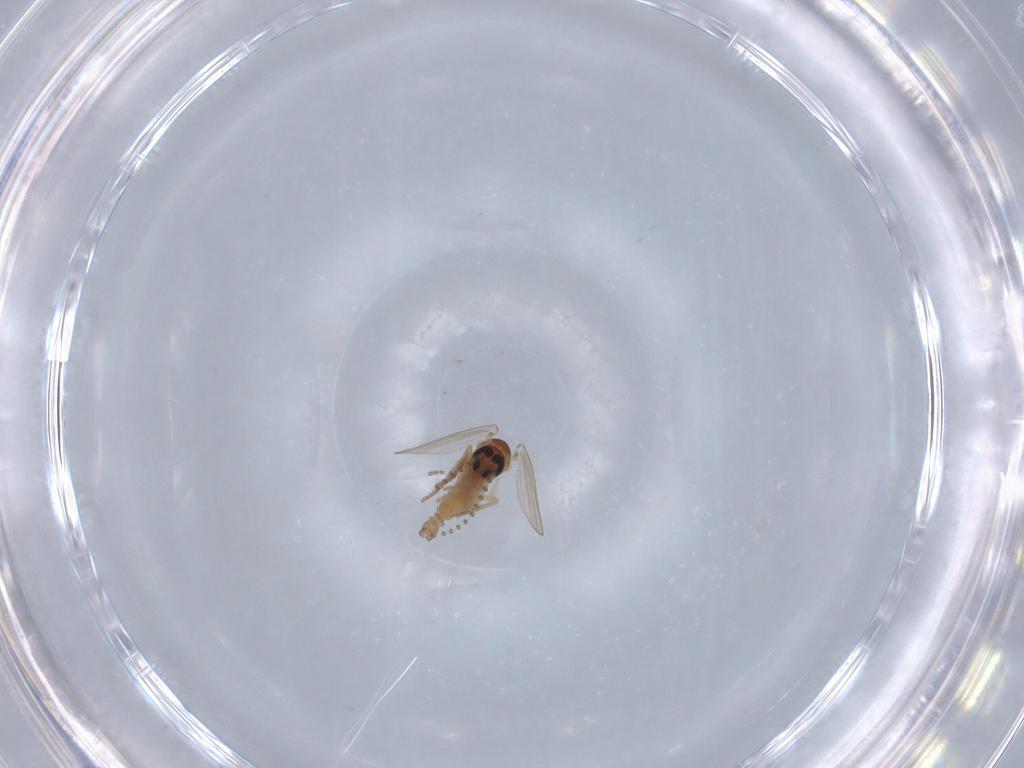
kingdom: Animalia
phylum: Arthropoda
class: Insecta
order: Diptera
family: Psychodidae
